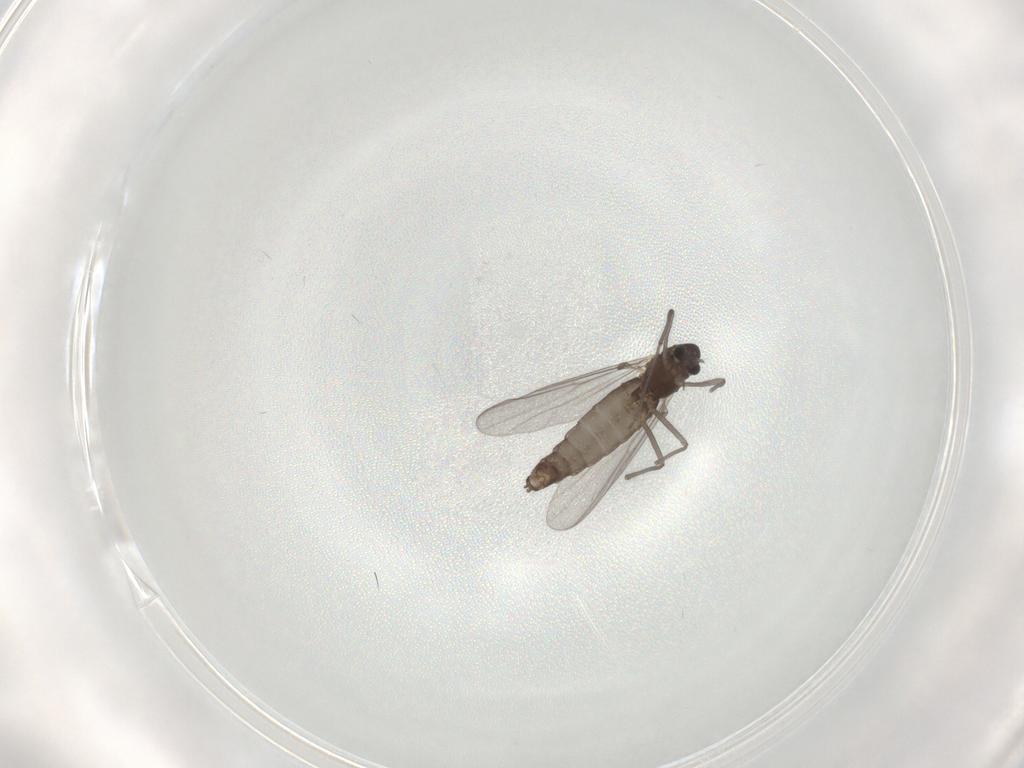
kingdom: Animalia
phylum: Arthropoda
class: Insecta
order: Diptera
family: Chironomidae
